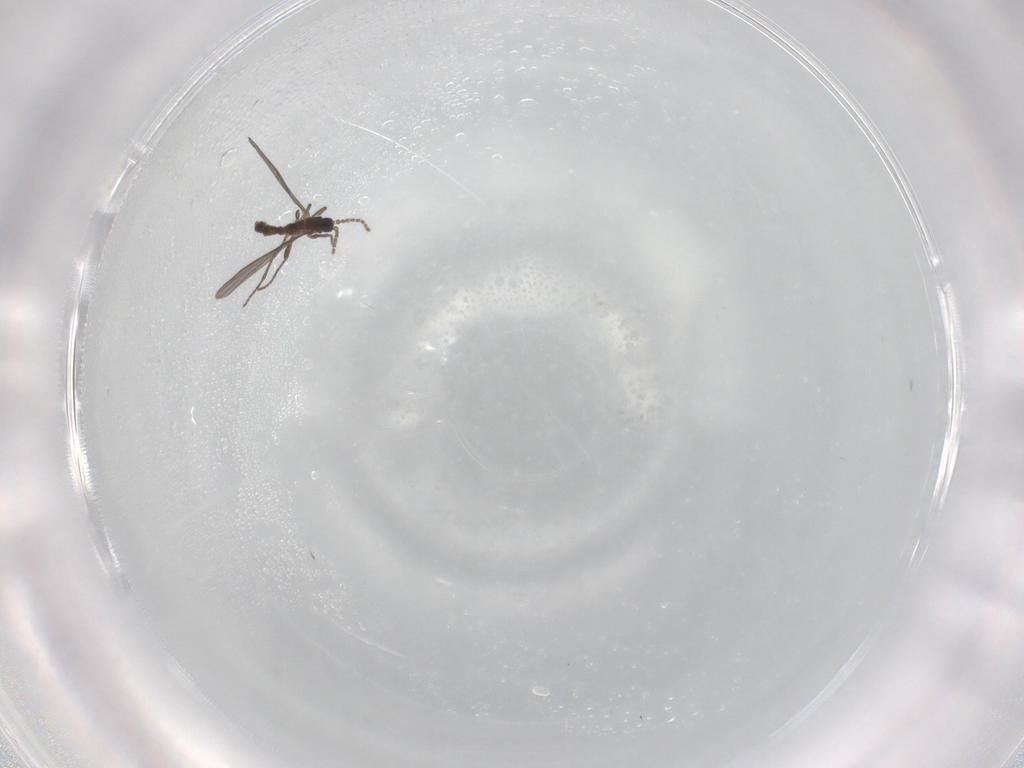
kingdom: Animalia
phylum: Arthropoda
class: Insecta
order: Diptera
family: Sciaridae
